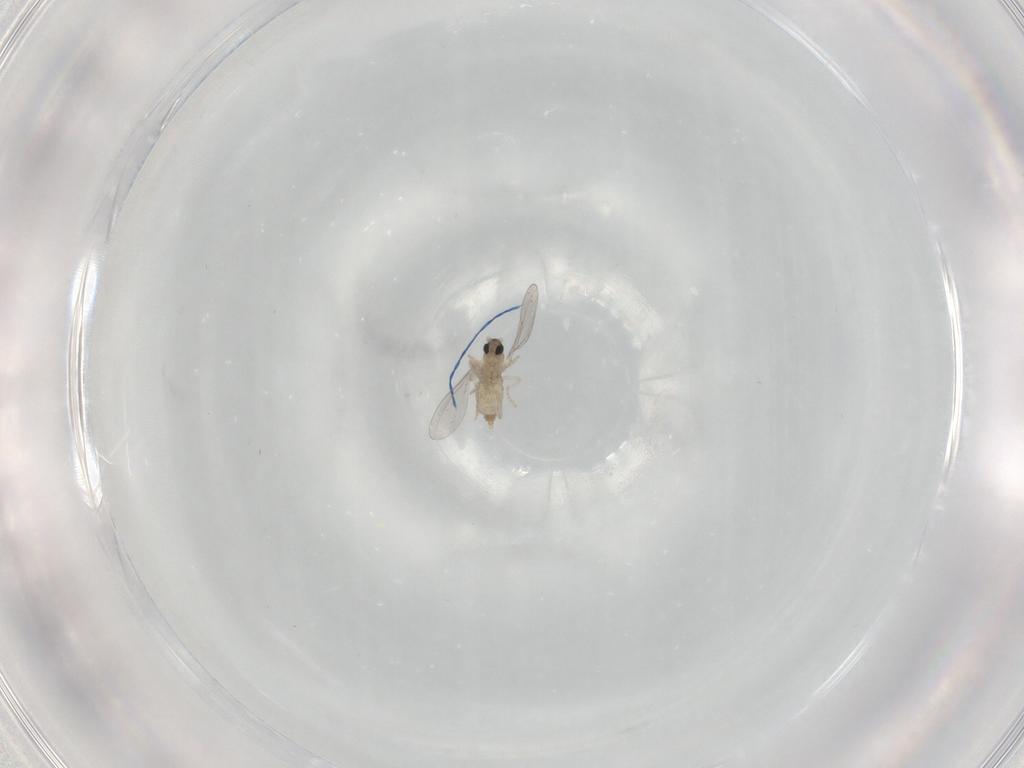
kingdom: Animalia
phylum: Arthropoda
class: Insecta
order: Diptera
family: Cecidomyiidae
